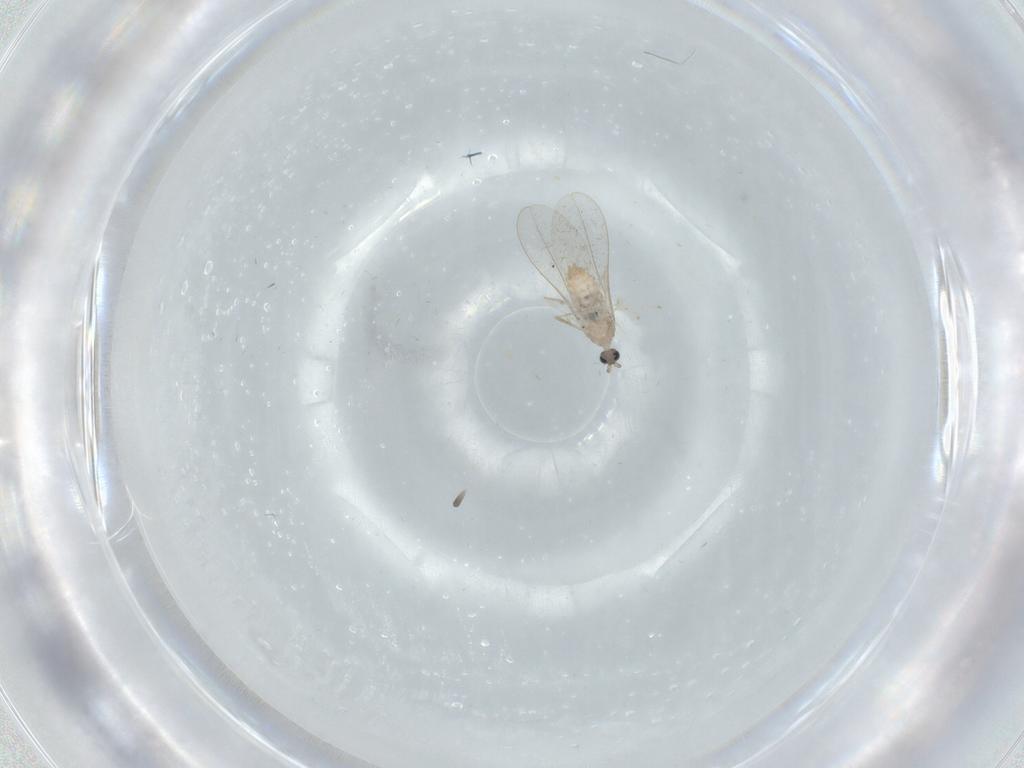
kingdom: Animalia
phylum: Arthropoda
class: Insecta
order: Diptera
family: Cecidomyiidae
